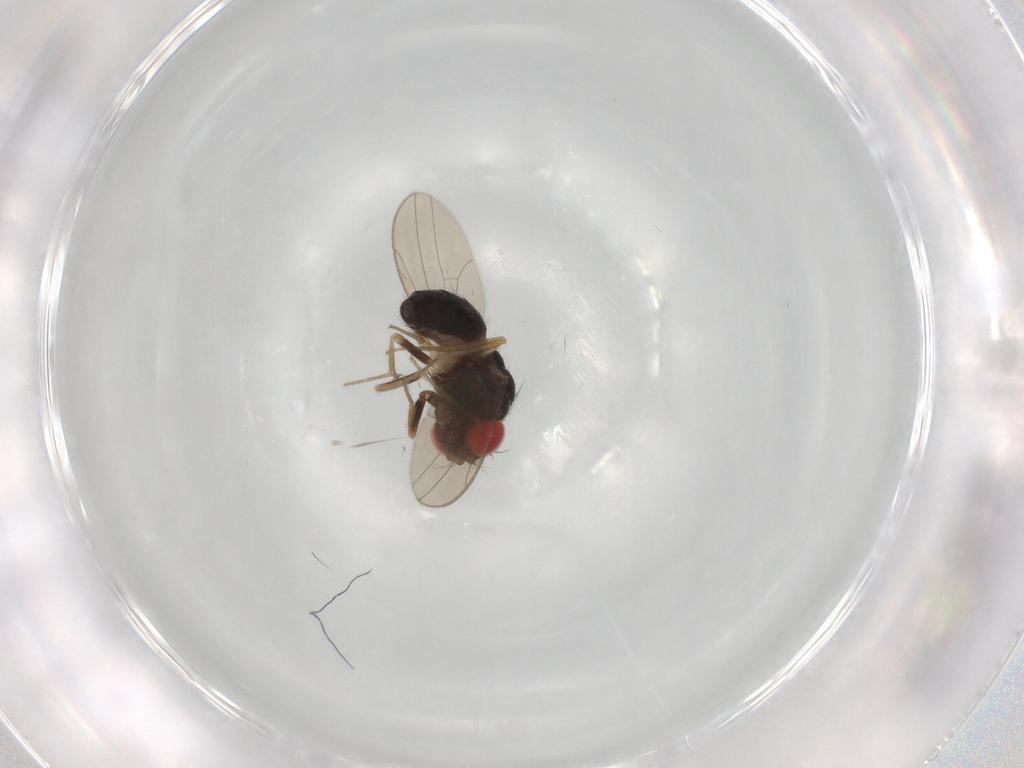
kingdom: Animalia
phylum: Arthropoda
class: Insecta
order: Diptera
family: Drosophilidae
